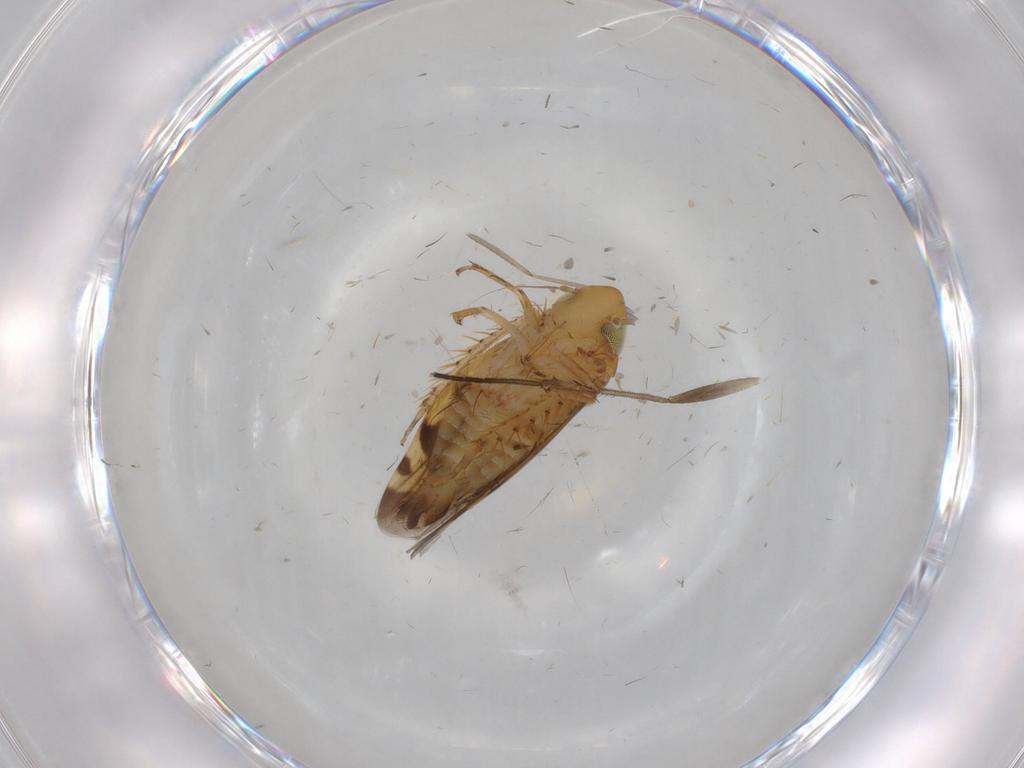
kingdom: Animalia
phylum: Arthropoda
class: Insecta
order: Hemiptera
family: Cicadellidae
